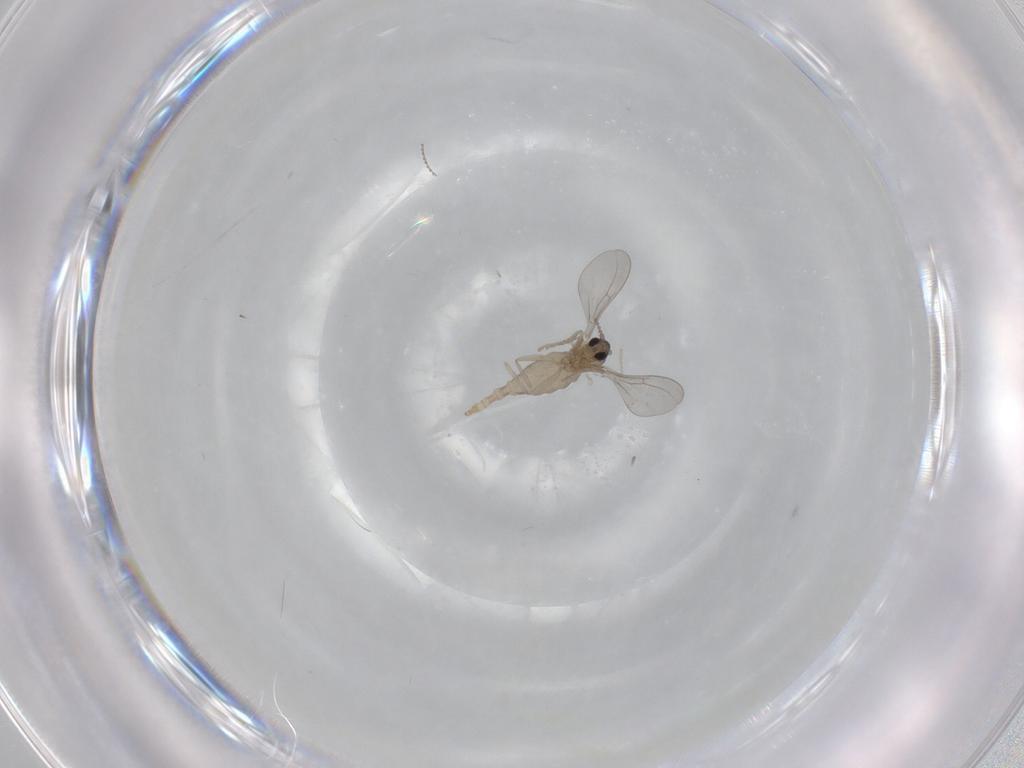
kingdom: Animalia
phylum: Arthropoda
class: Insecta
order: Diptera
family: Cecidomyiidae
